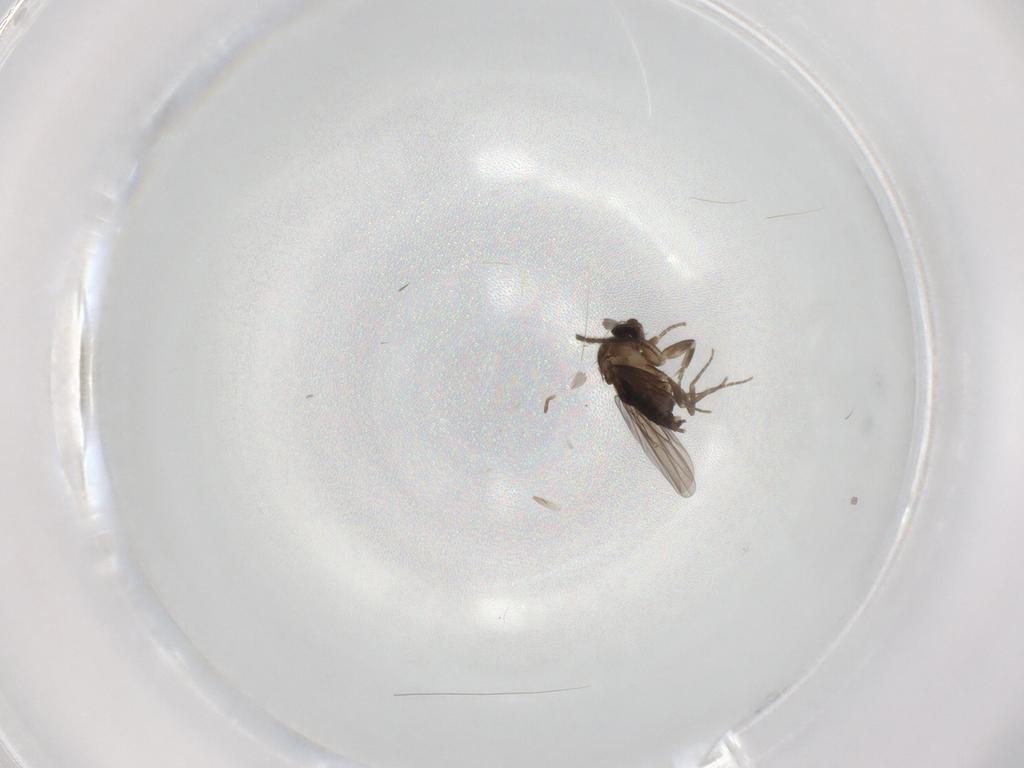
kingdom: Animalia
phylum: Arthropoda
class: Insecta
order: Diptera
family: Sciaridae
